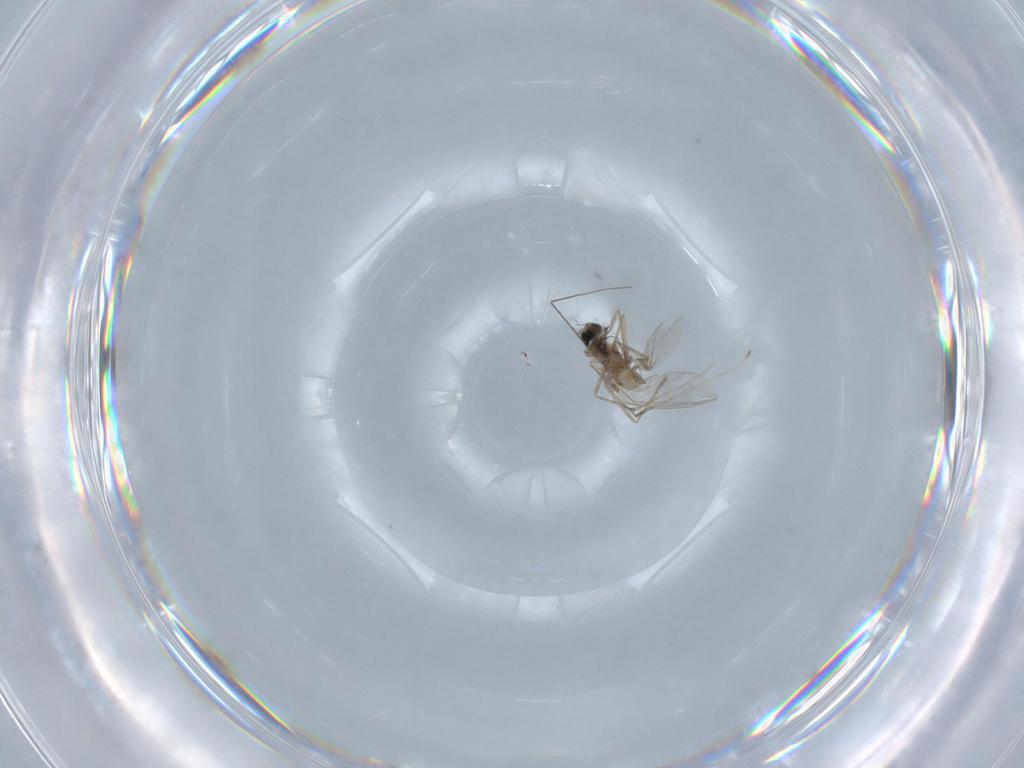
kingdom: Animalia
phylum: Arthropoda
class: Insecta
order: Diptera
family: Cecidomyiidae
